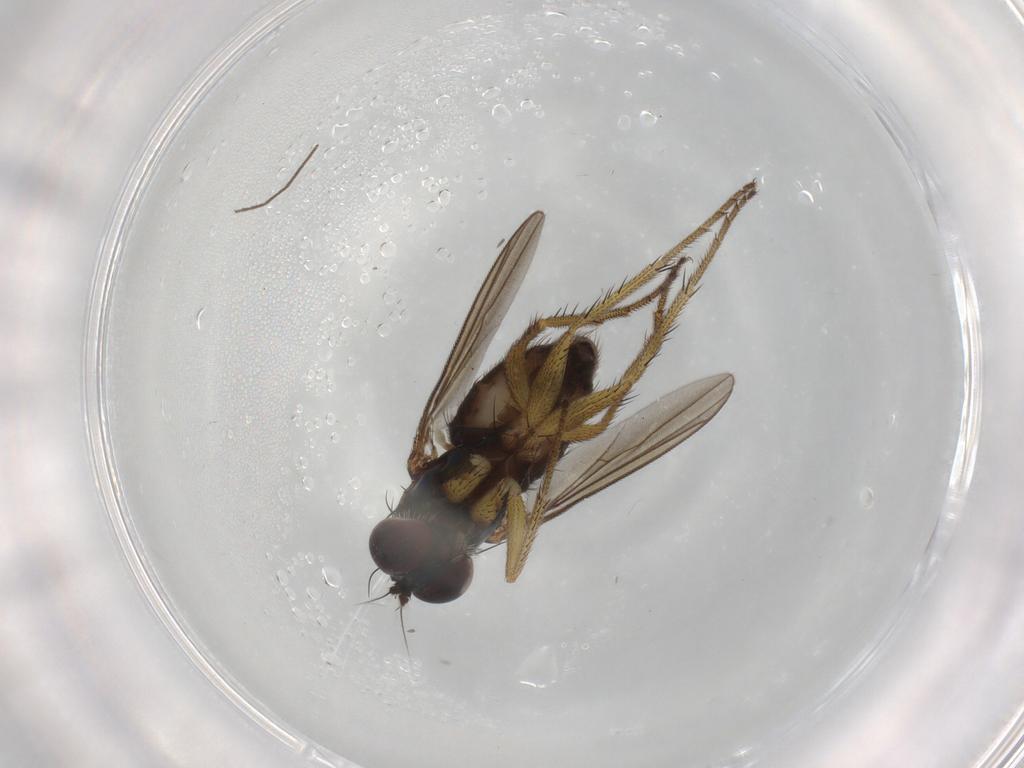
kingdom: Animalia
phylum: Arthropoda
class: Insecta
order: Diptera
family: Dolichopodidae
